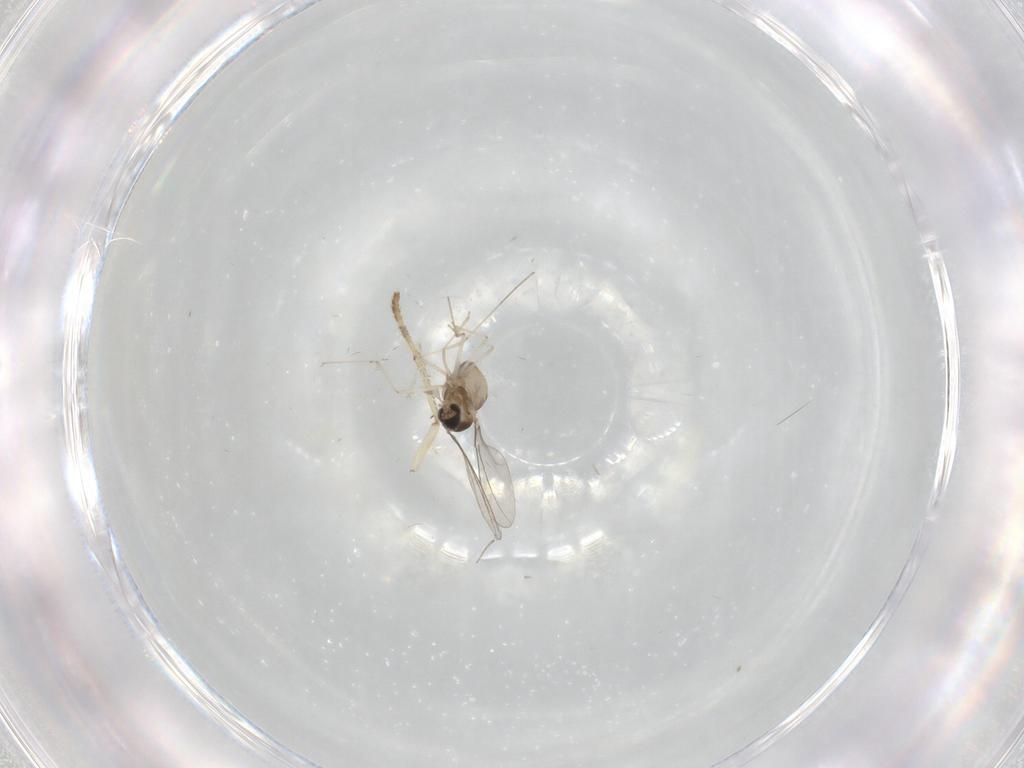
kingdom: Animalia
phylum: Arthropoda
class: Insecta
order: Diptera
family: Cecidomyiidae
